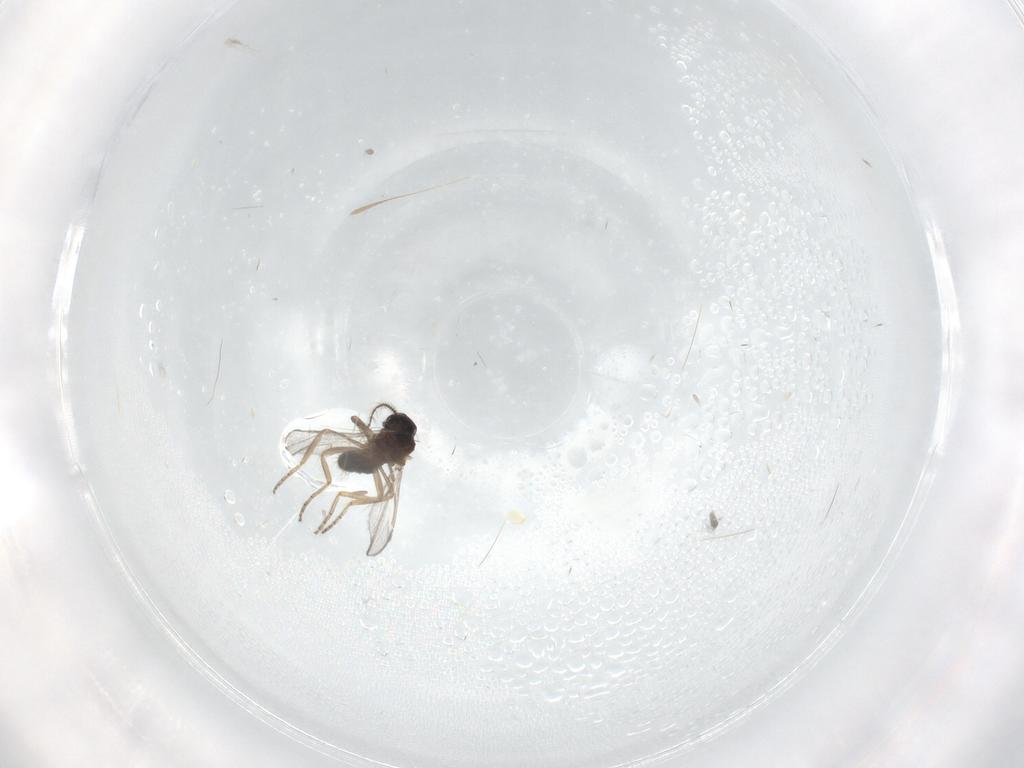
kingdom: Animalia
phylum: Arthropoda
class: Insecta
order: Diptera
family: Ceratopogonidae
